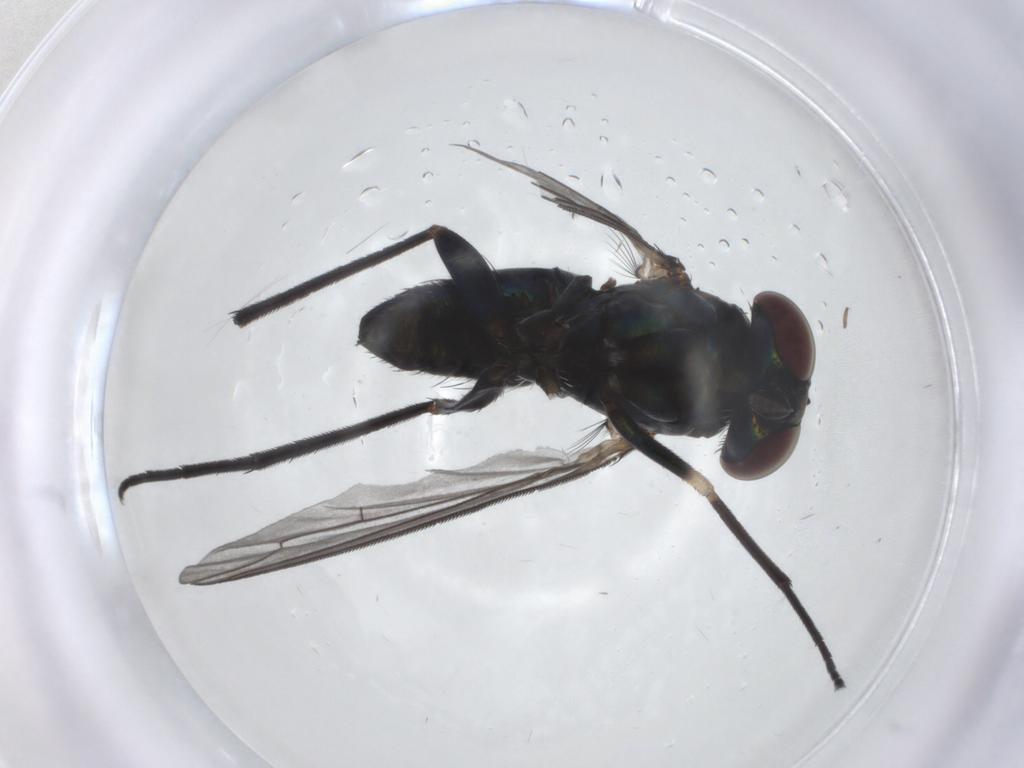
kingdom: Animalia
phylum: Arthropoda
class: Insecta
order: Diptera
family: Dolichopodidae
